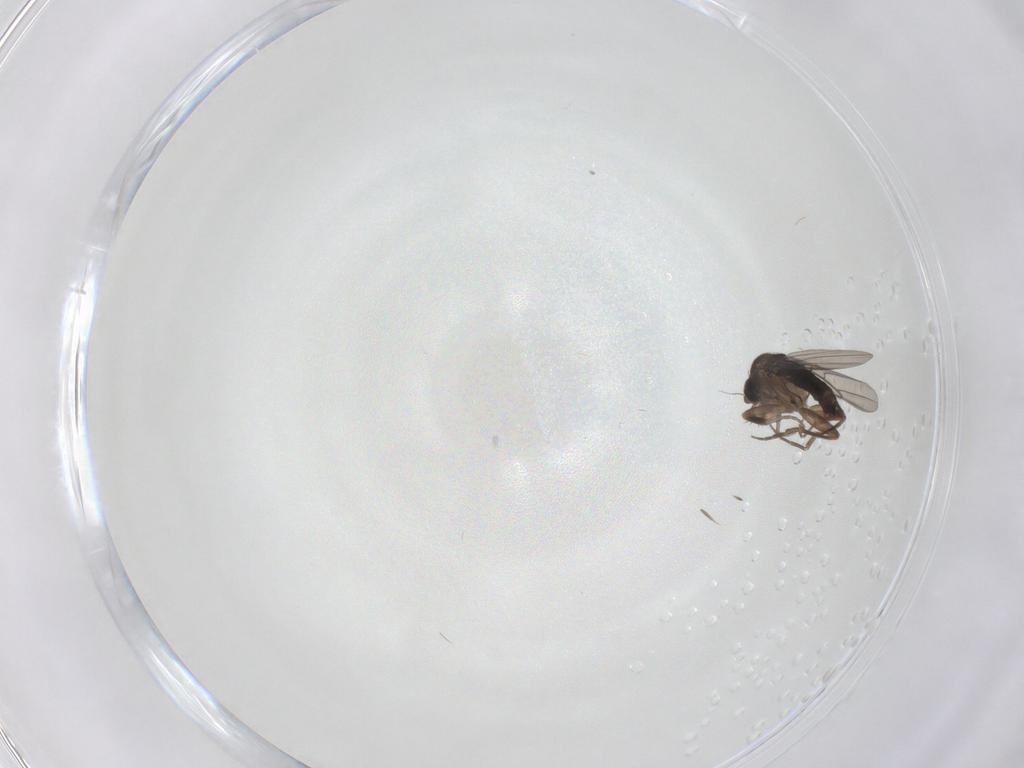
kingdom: Animalia
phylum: Arthropoda
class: Insecta
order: Diptera
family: Phoridae
